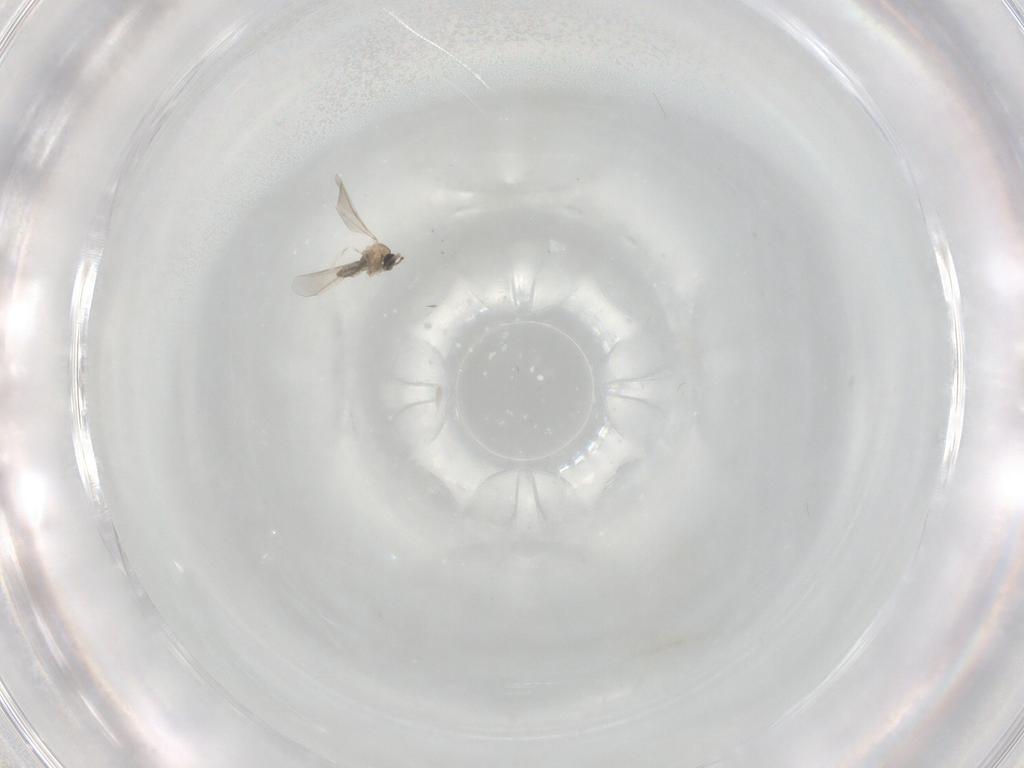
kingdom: Animalia
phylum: Arthropoda
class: Insecta
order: Diptera
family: Cecidomyiidae
